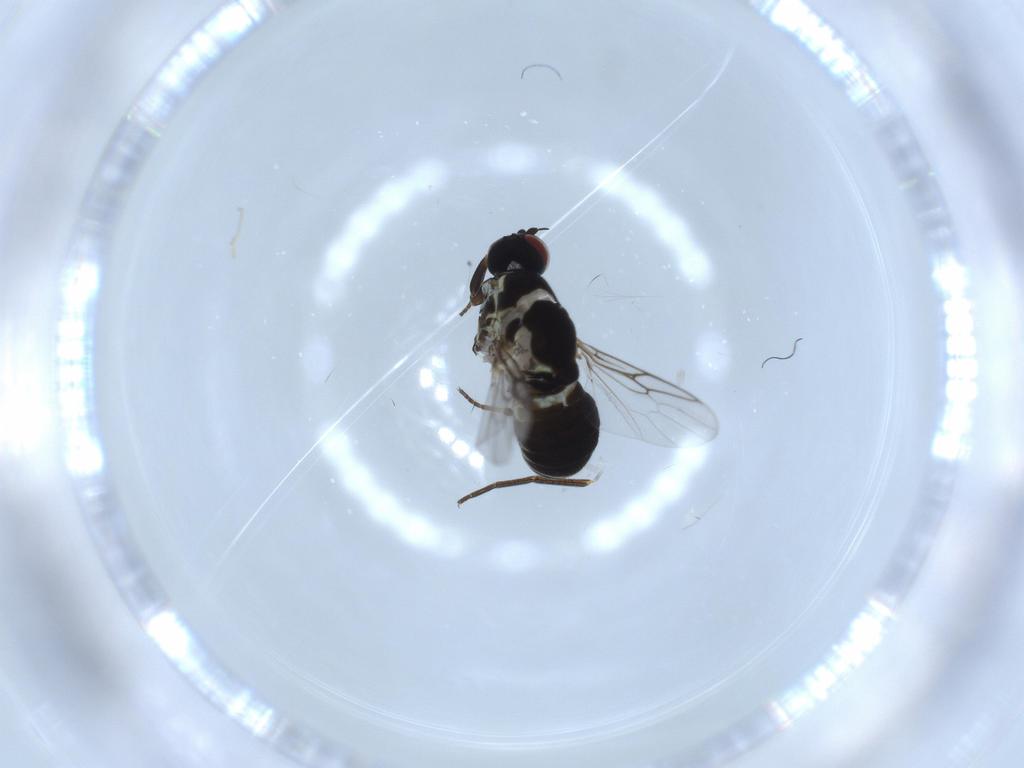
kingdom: Animalia
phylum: Arthropoda
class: Insecta
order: Diptera
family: Mythicomyiidae
